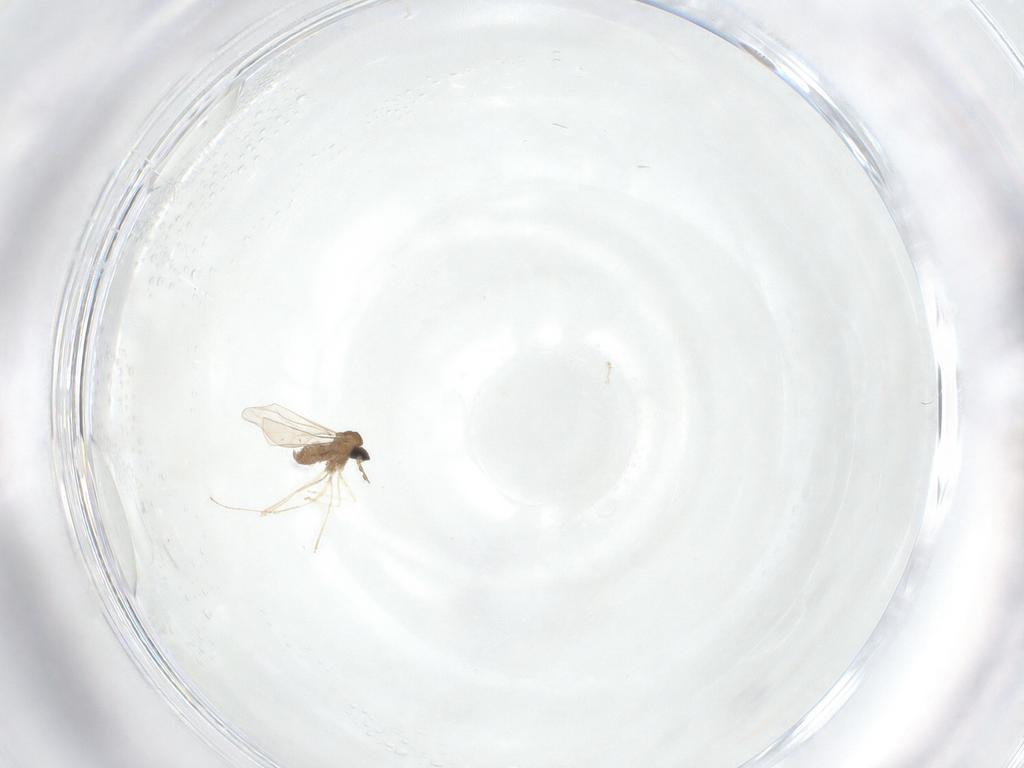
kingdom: Animalia
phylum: Arthropoda
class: Insecta
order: Diptera
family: Cecidomyiidae
